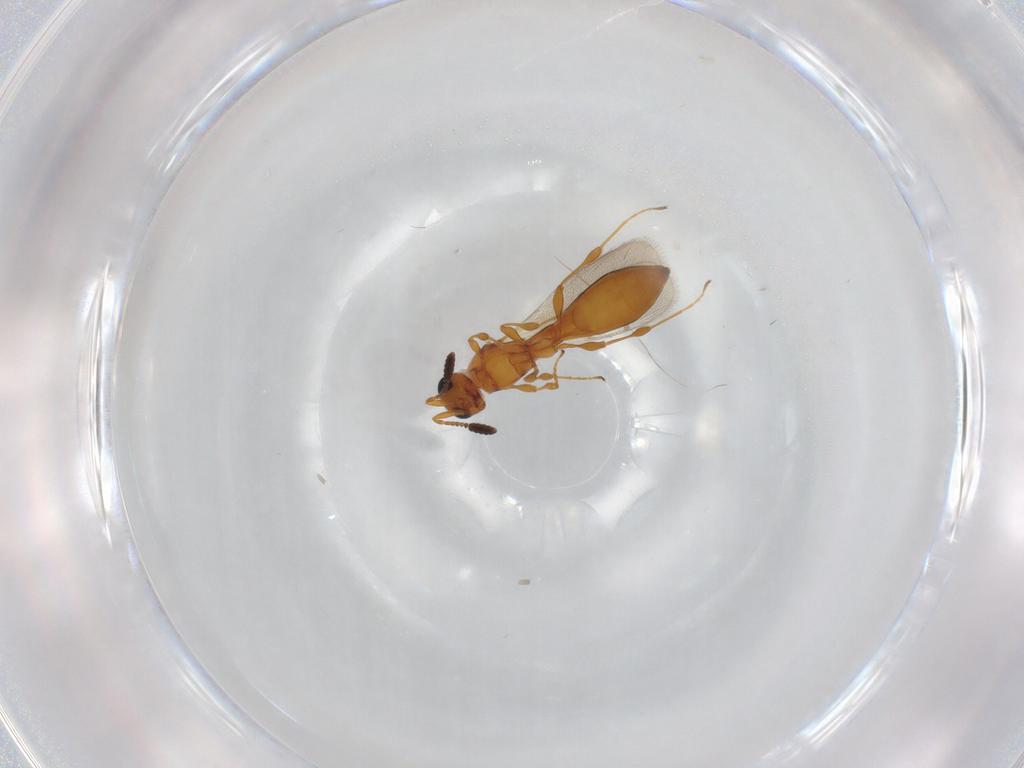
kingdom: Animalia
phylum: Arthropoda
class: Insecta
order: Hymenoptera
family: Scelionidae
